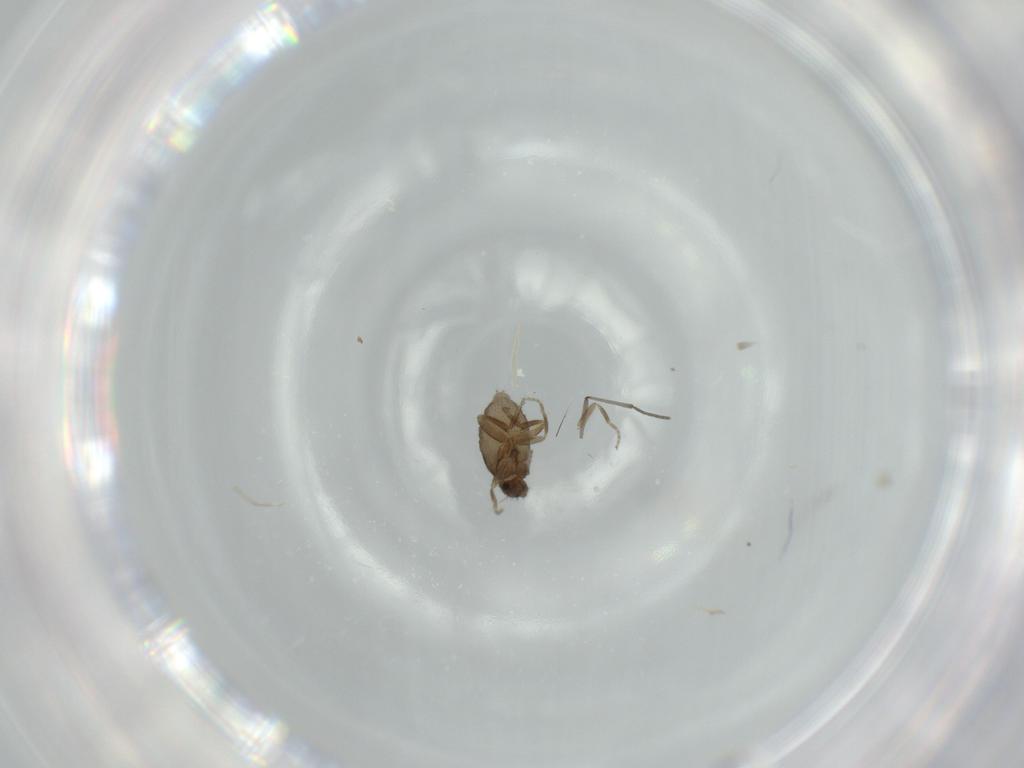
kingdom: Animalia
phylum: Arthropoda
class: Insecta
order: Diptera
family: Phoridae
